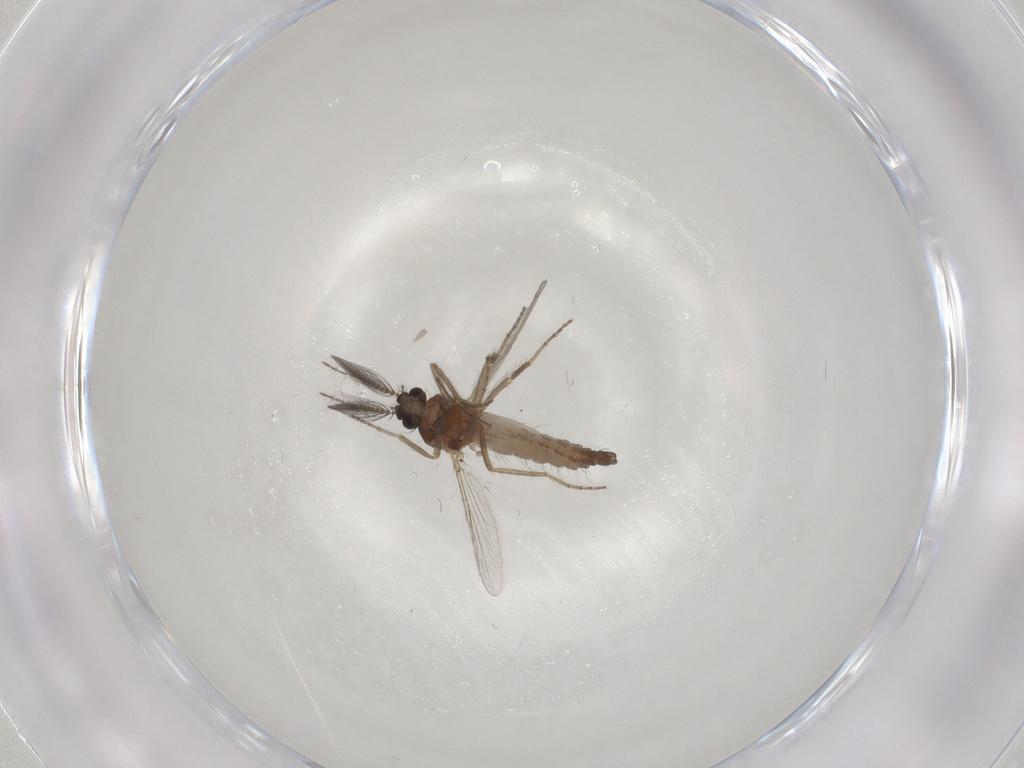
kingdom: Animalia
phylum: Arthropoda
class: Insecta
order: Diptera
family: Ceratopogonidae
